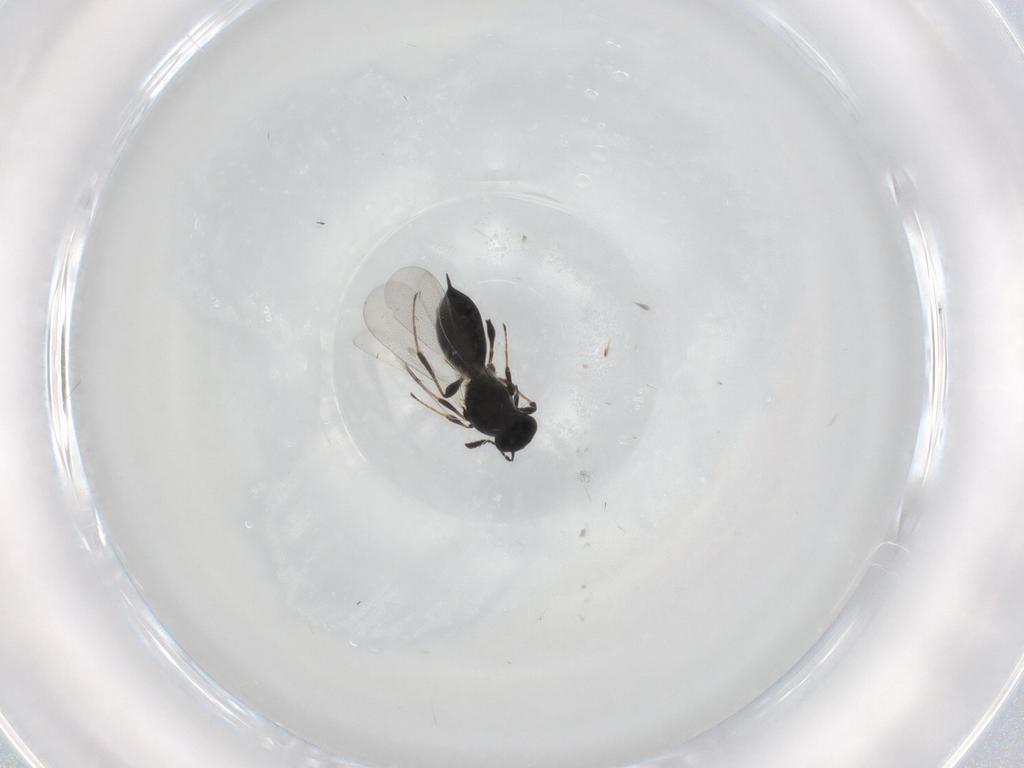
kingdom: Animalia
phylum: Arthropoda
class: Insecta
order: Hymenoptera
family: Platygastridae
